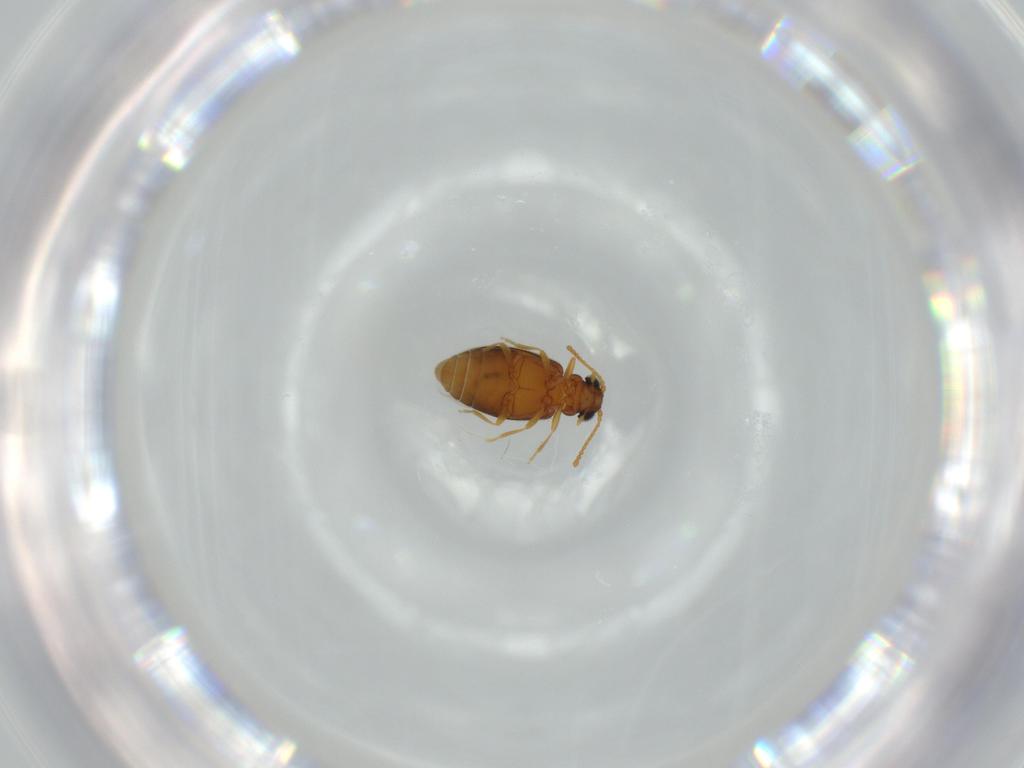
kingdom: Animalia
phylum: Arthropoda
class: Insecta
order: Coleoptera
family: Aderidae
